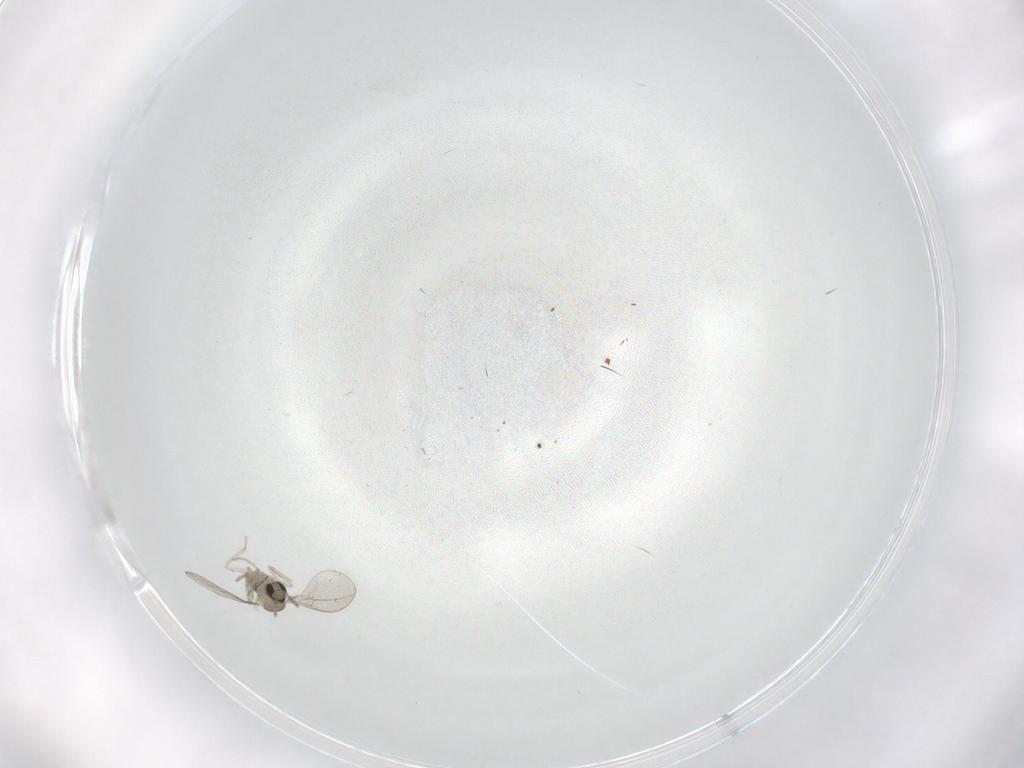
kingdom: Animalia
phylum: Arthropoda
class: Insecta
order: Diptera
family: Cecidomyiidae
